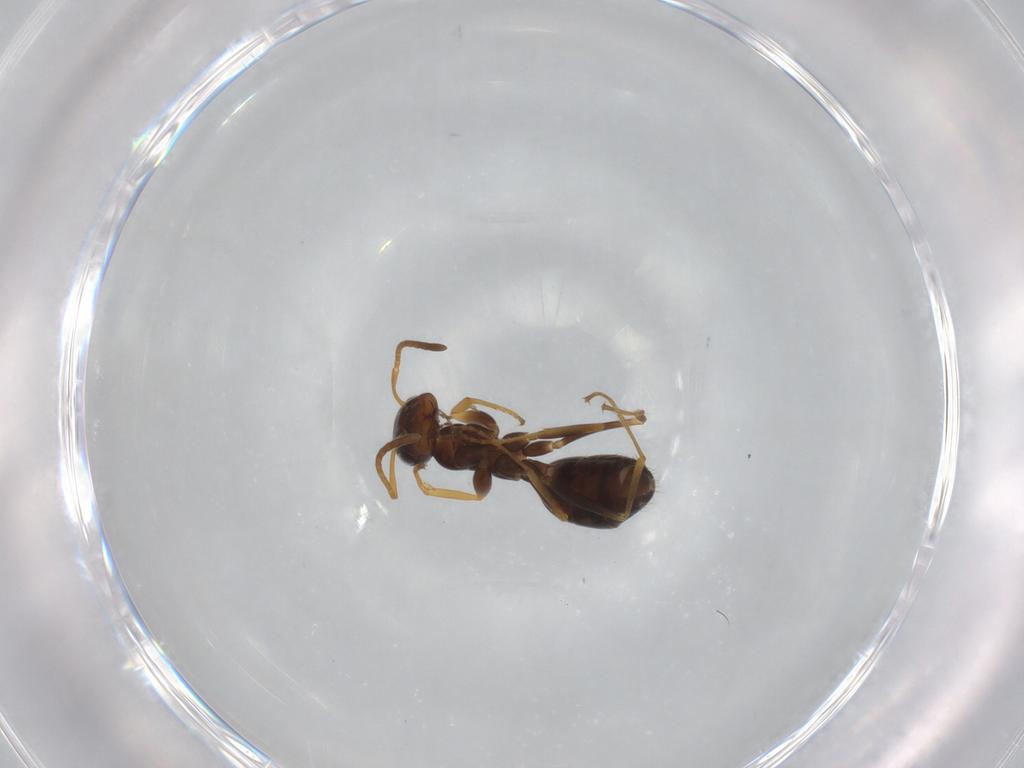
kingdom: Animalia
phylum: Arthropoda
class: Insecta
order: Hymenoptera
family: Formicidae
